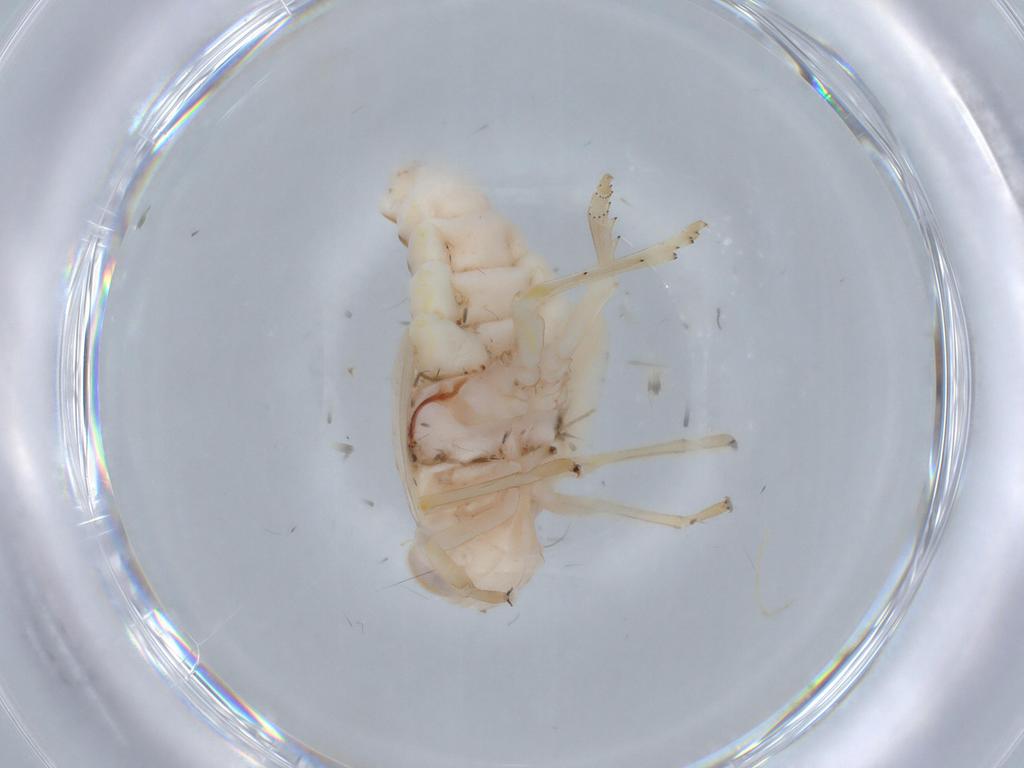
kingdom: Animalia
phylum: Arthropoda
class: Insecta
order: Hemiptera
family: Nogodinidae
